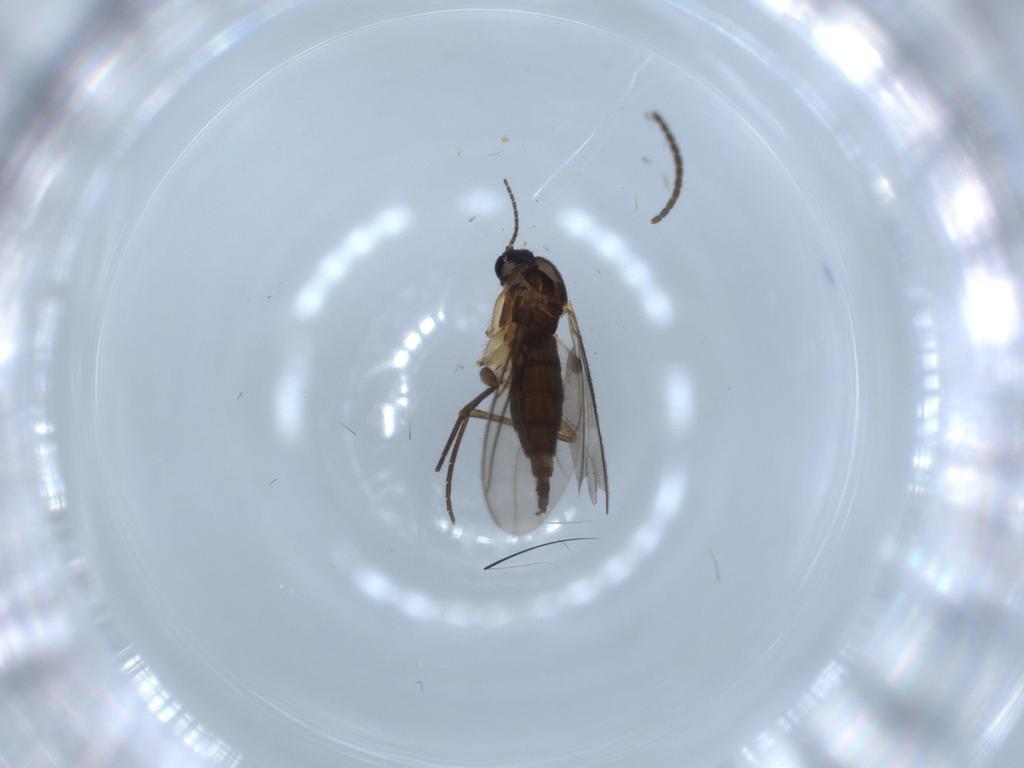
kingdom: Animalia
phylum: Arthropoda
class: Insecta
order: Diptera
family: Sciaridae
